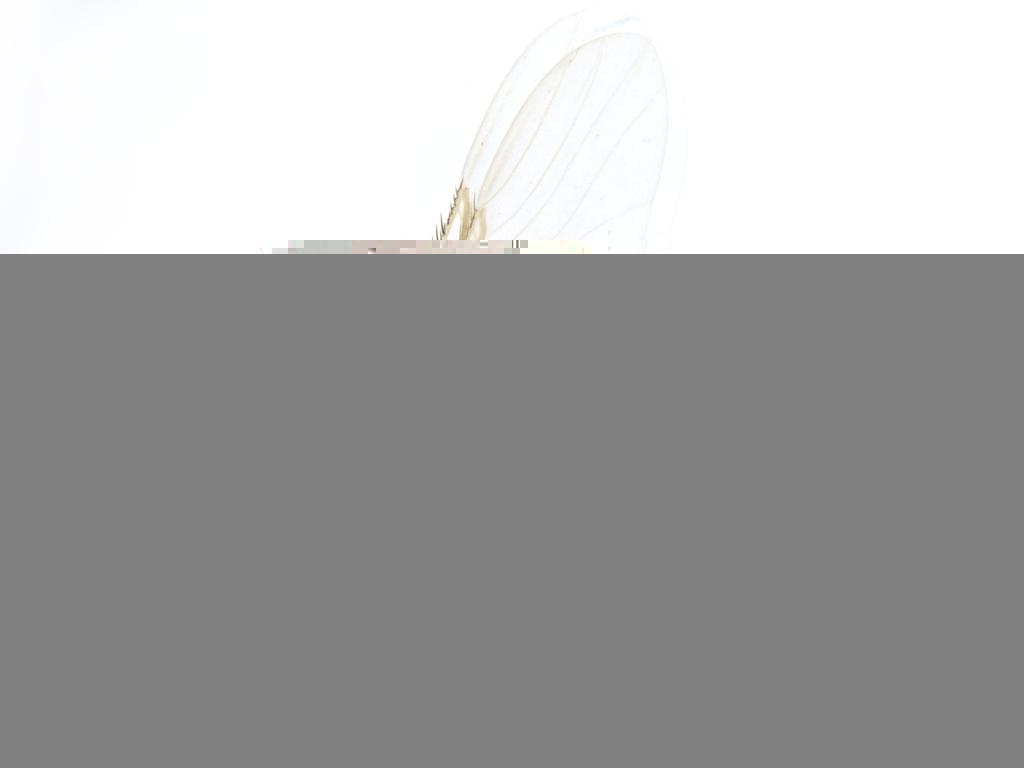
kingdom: Animalia
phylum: Arthropoda
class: Insecta
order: Diptera
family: Phoridae
